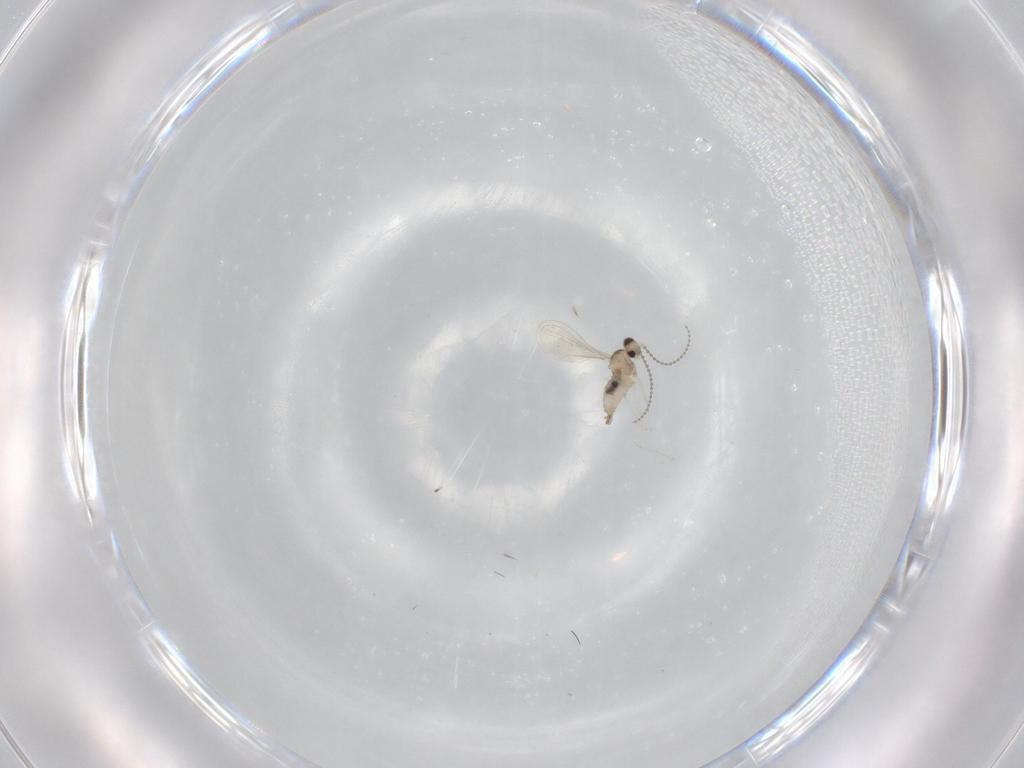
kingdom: Animalia
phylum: Arthropoda
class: Insecta
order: Diptera
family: Cecidomyiidae
